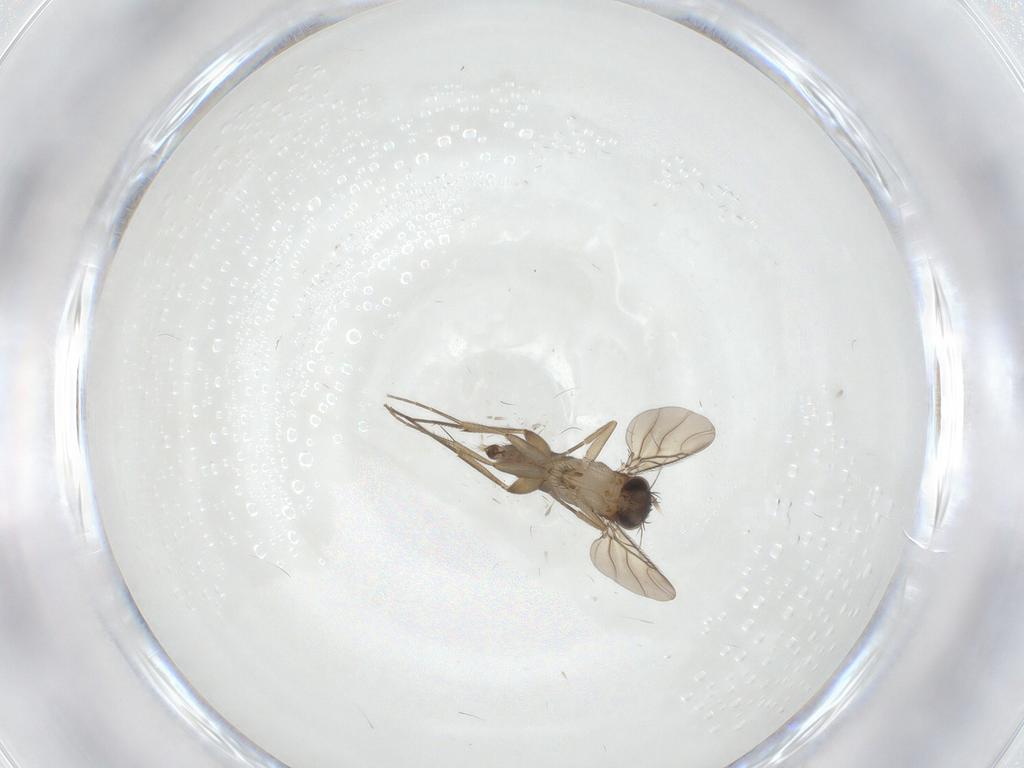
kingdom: Animalia
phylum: Arthropoda
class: Insecta
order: Diptera
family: Phoridae
